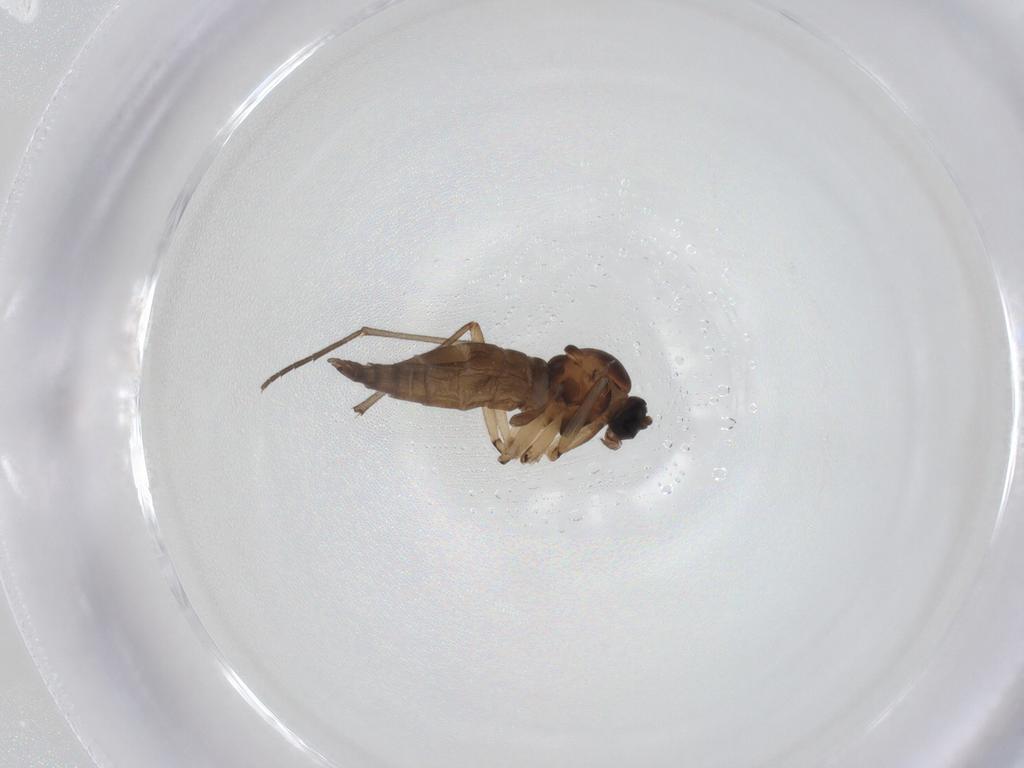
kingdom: Animalia
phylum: Arthropoda
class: Insecta
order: Diptera
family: Sciaridae
